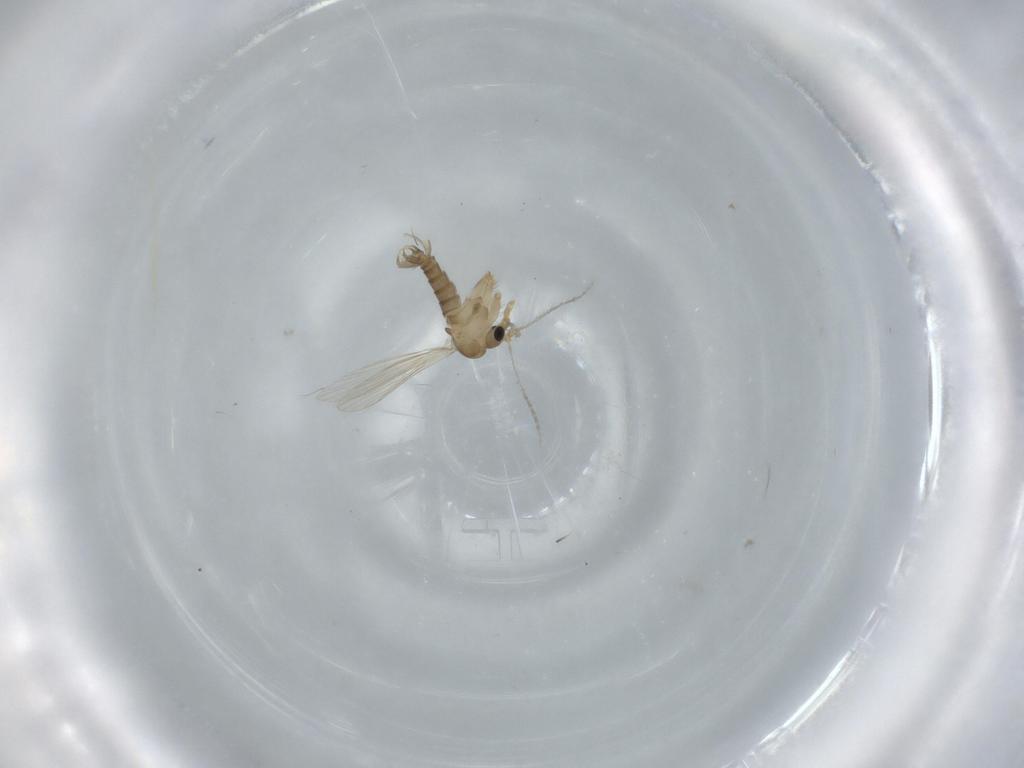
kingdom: Animalia
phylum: Arthropoda
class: Insecta
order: Diptera
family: Psychodidae
